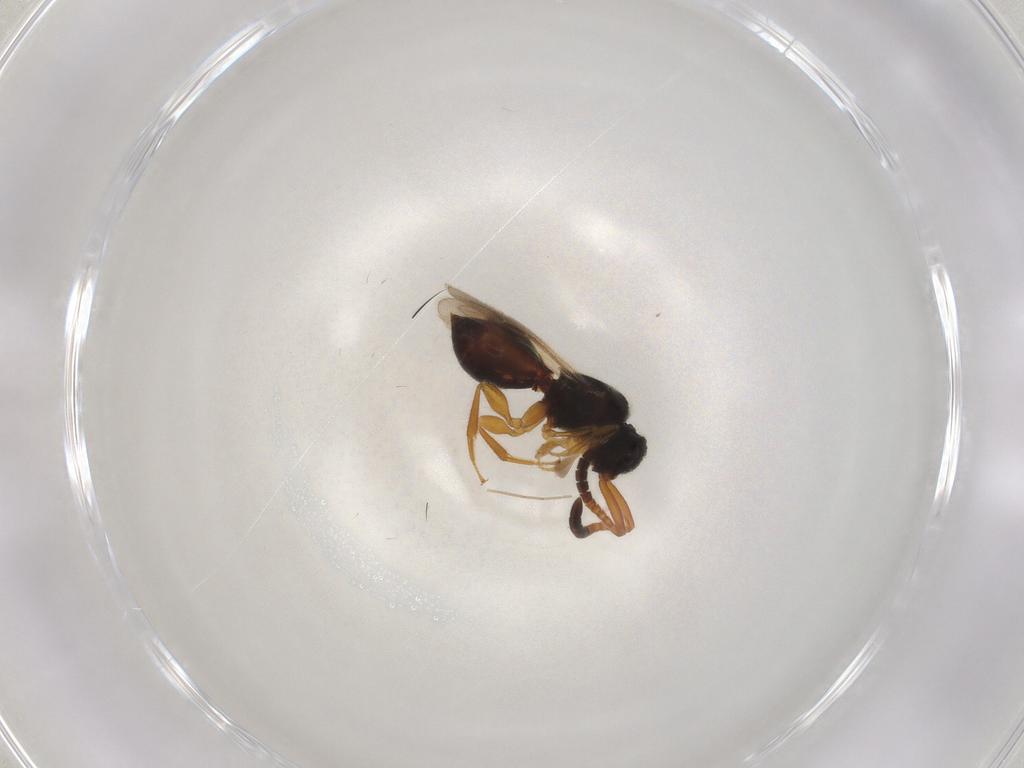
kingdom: Animalia
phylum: Arthropoda
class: Insecta
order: Hymenoptera
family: Megaspilidae
